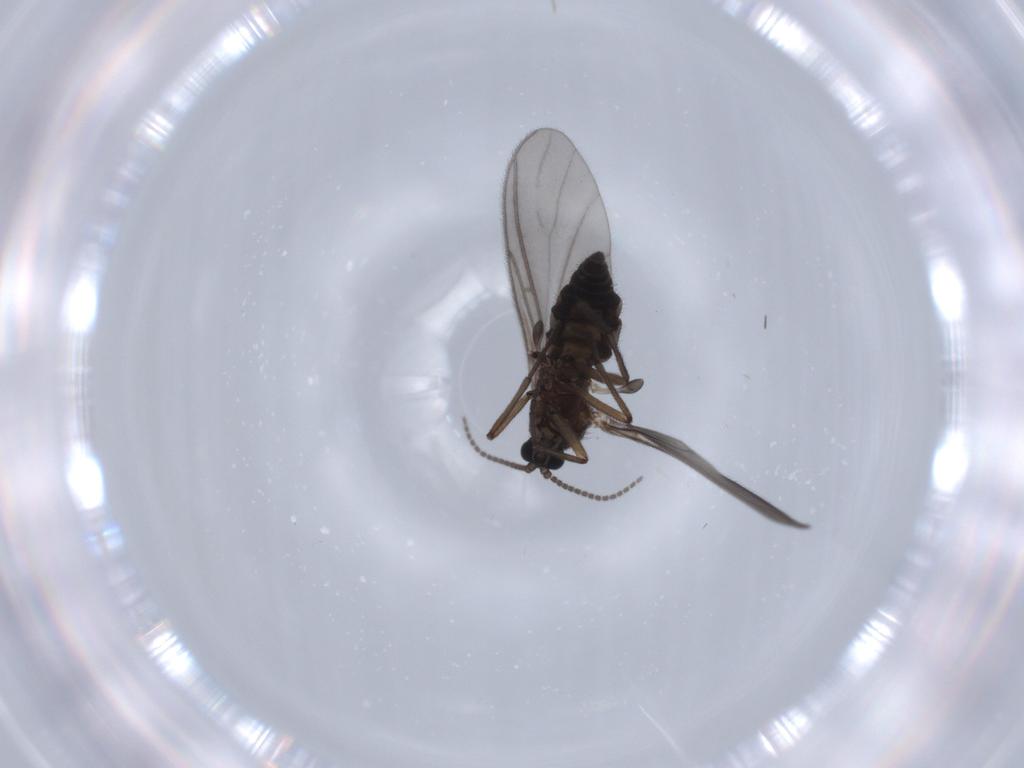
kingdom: Animalia
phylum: Arthropoda
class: Insecta
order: Diptera
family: Sciaridae
